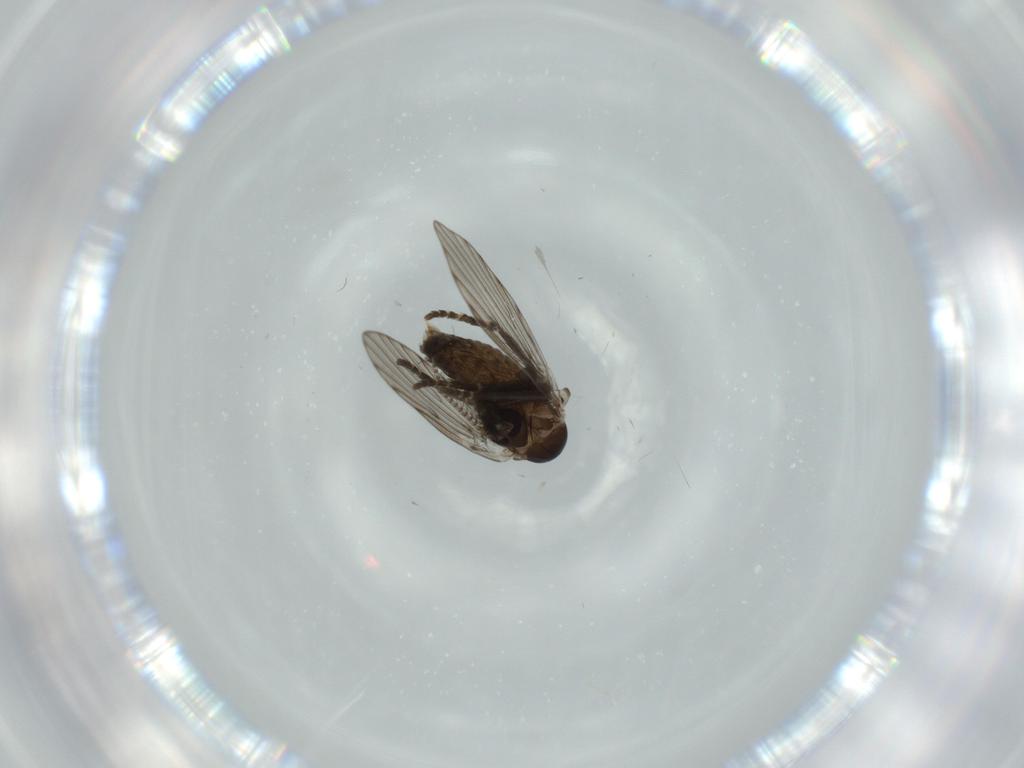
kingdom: Animalia
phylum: Arthropoda
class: Insecta
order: Diptera
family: Psychodidae
